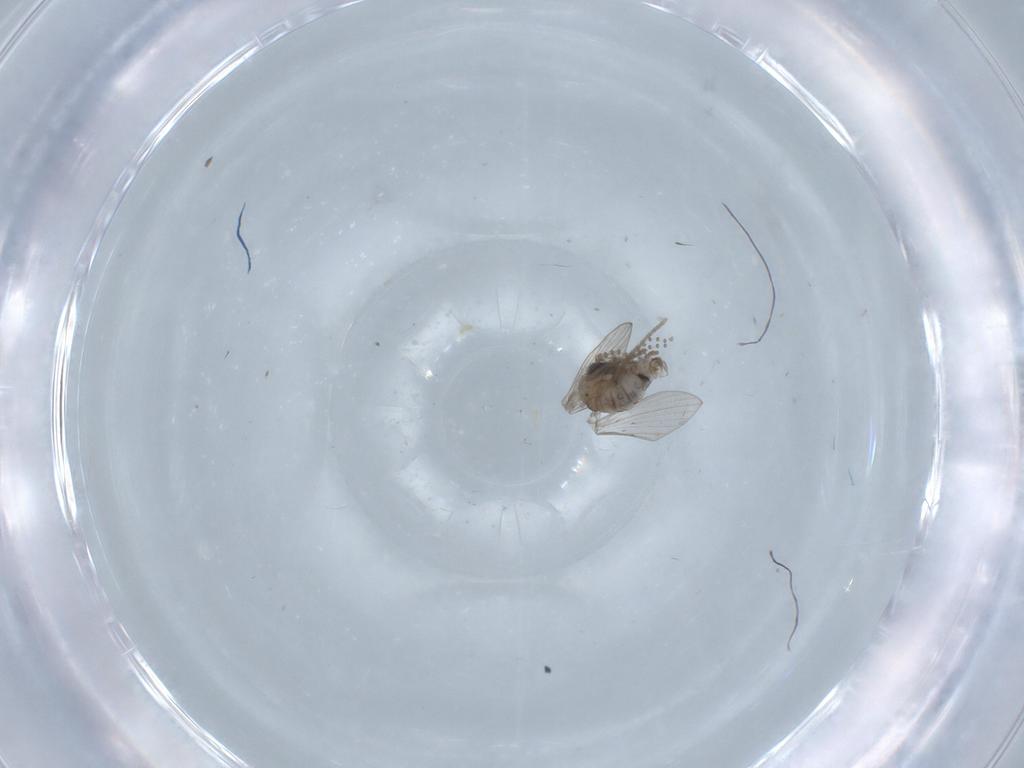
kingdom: Animalia
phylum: Arthropoda
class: Insecta
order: Diptera
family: Psychodidae
